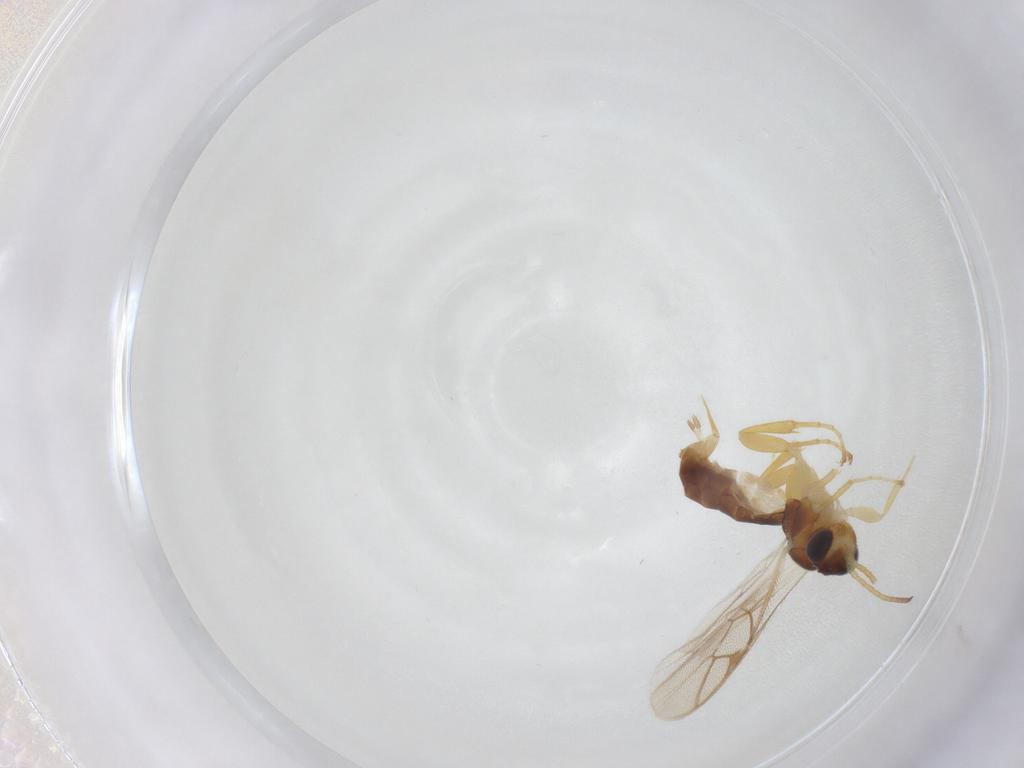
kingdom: Animalia
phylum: Arthropoda
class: Insecta
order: Hymenoptera
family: Ichneumonidae
